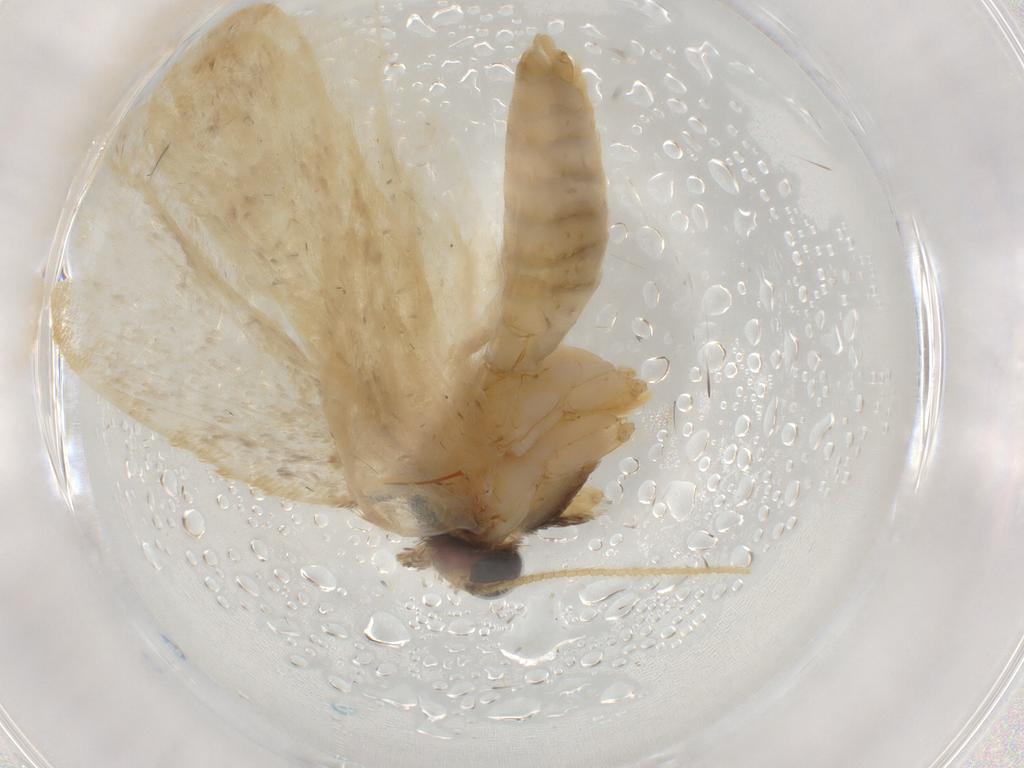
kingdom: Animalia
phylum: Arthropoda
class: Insecta
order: Lepidoptera
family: Psychidae
